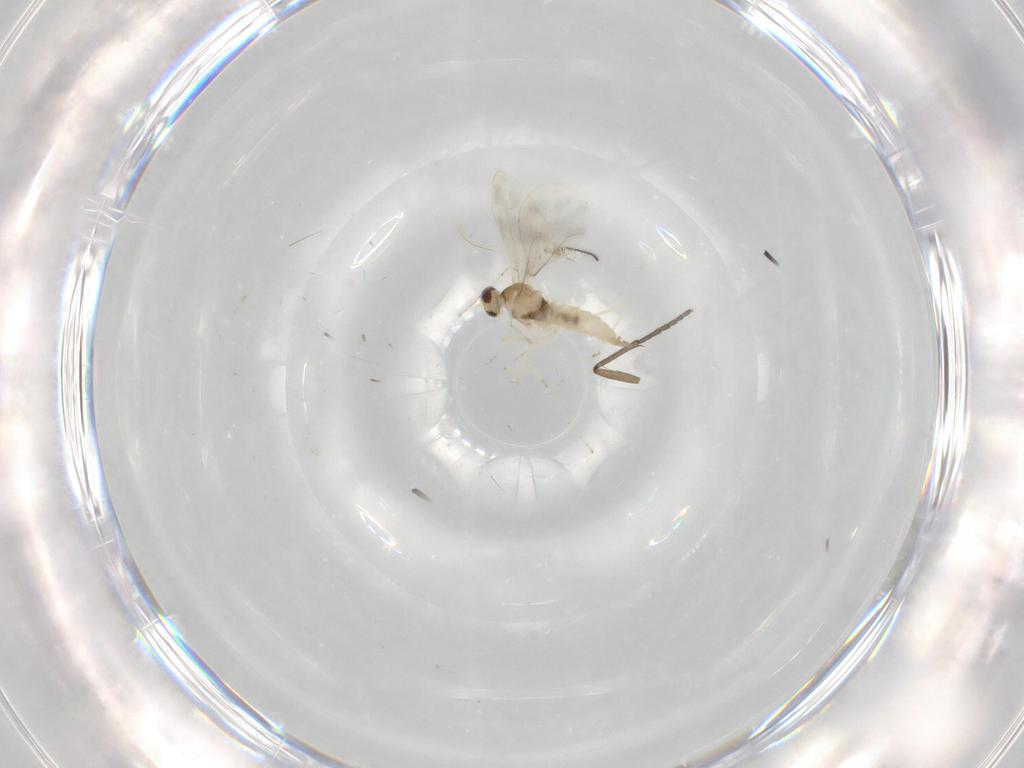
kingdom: Animalia
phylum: Arthropoda
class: Insecta
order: Diptera
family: Cecidomyiidae
